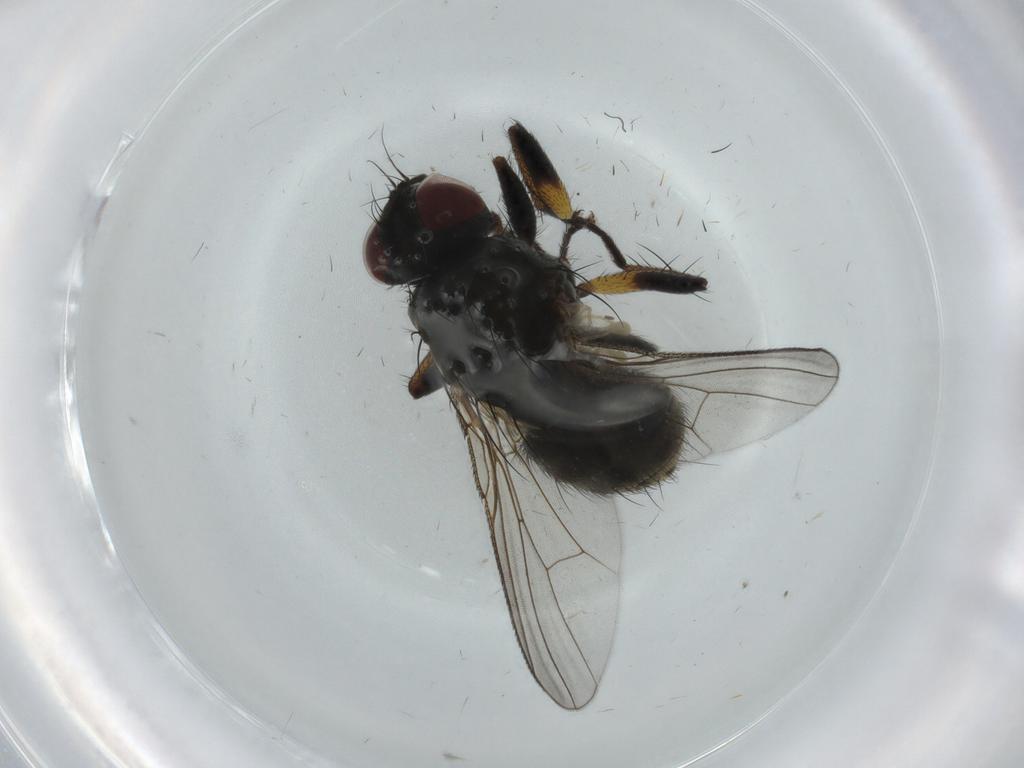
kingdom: Animalia
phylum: Arthropoda
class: Insecta
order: Diptera
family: Muscidae
